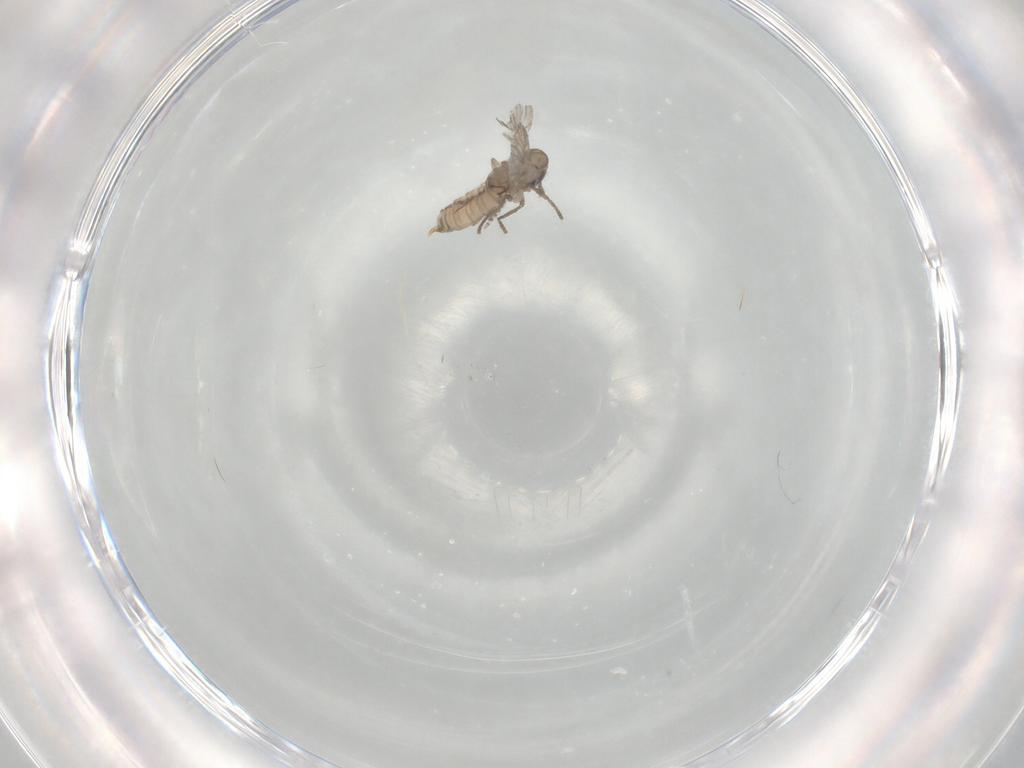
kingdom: Animalia
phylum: Arthropoda
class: Insecta
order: Diptera
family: Psychodidae
